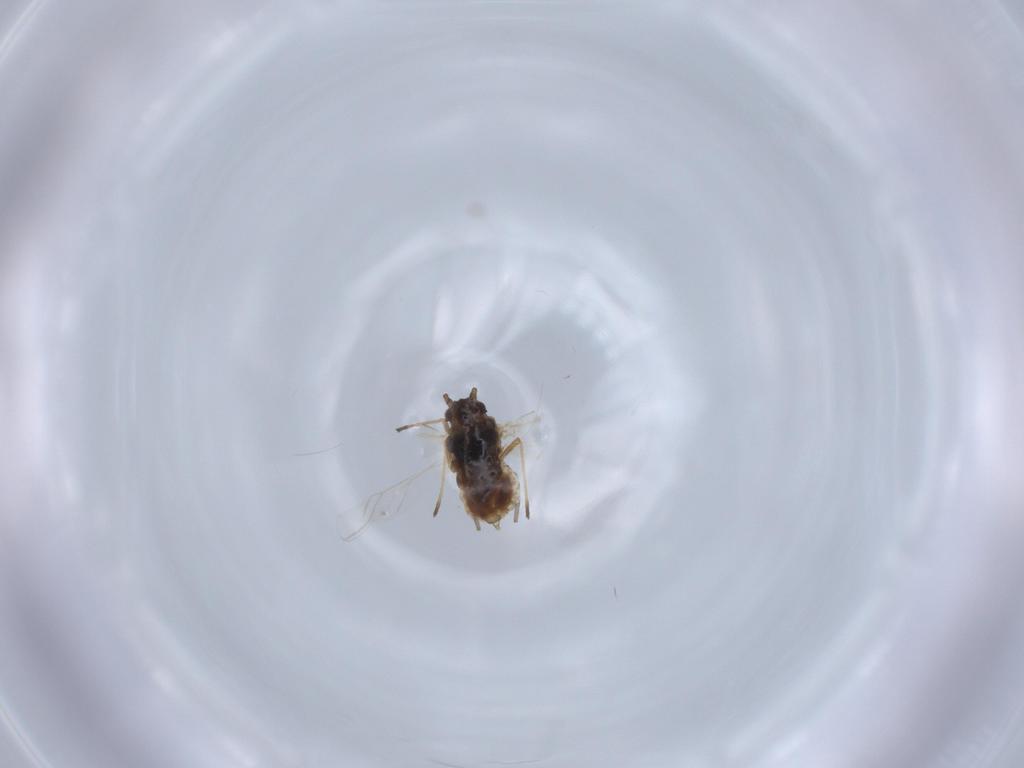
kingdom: Animalia
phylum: Arthropoda
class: Insecta
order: Hemiptera
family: Aphididae
